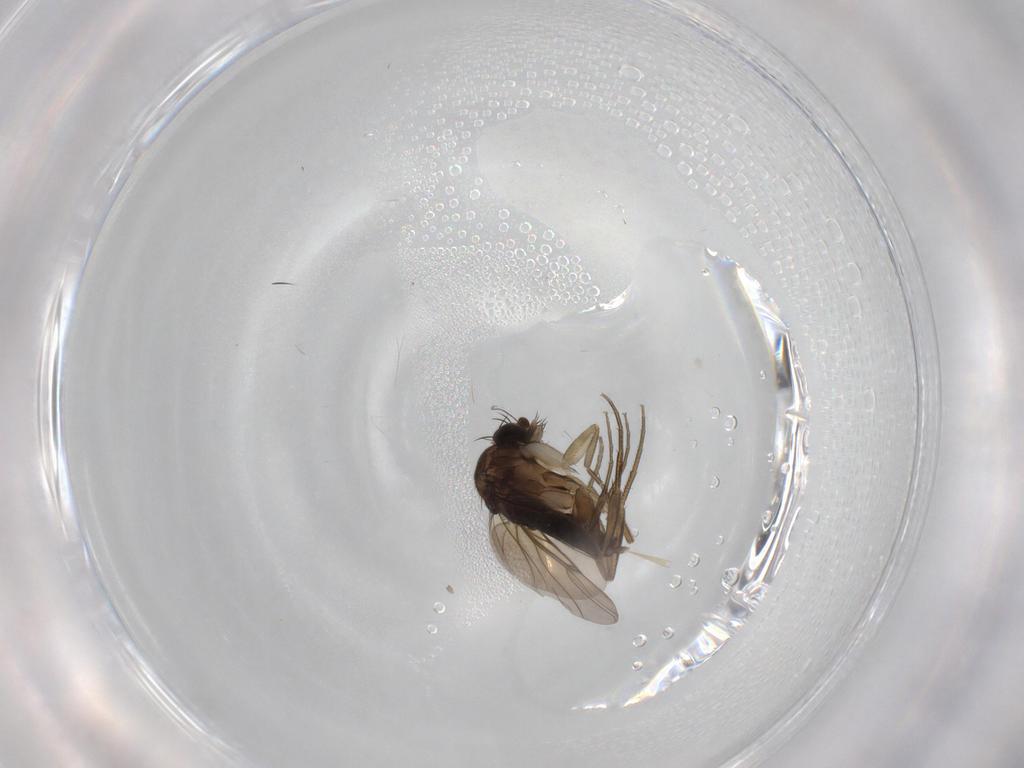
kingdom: Animalia
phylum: Arthropoda
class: Insecta
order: Diptera
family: Phoridae
